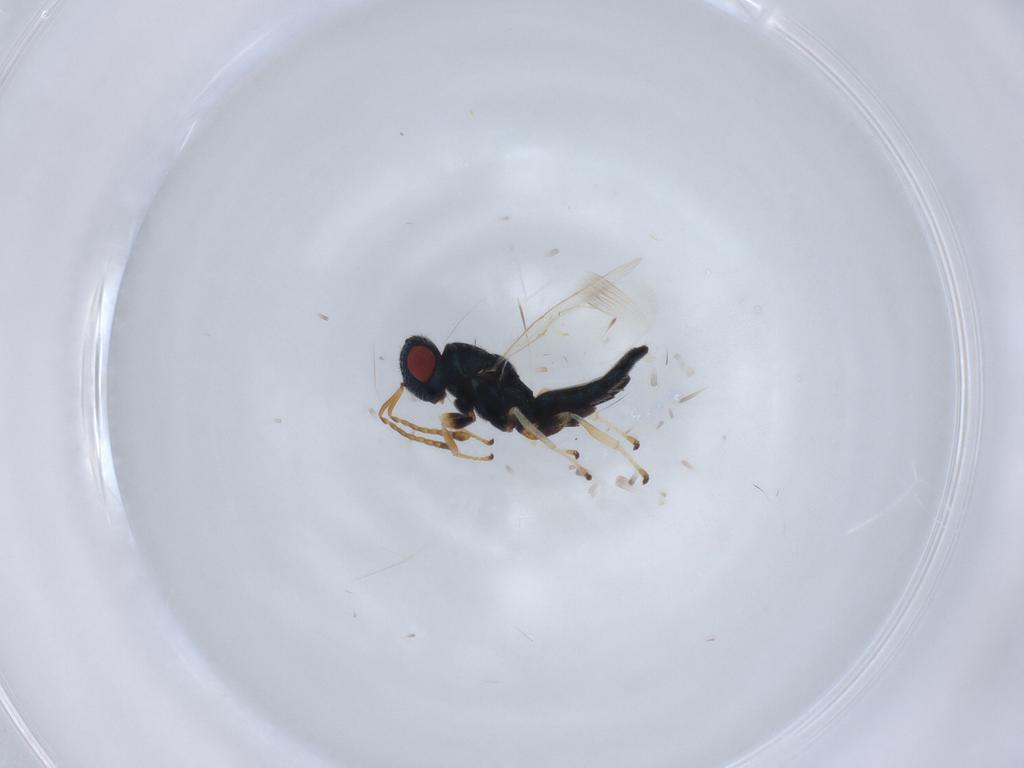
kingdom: Animalia
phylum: Arthropoda
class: Insecta
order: Hymenoptera
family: Pteromalidae
